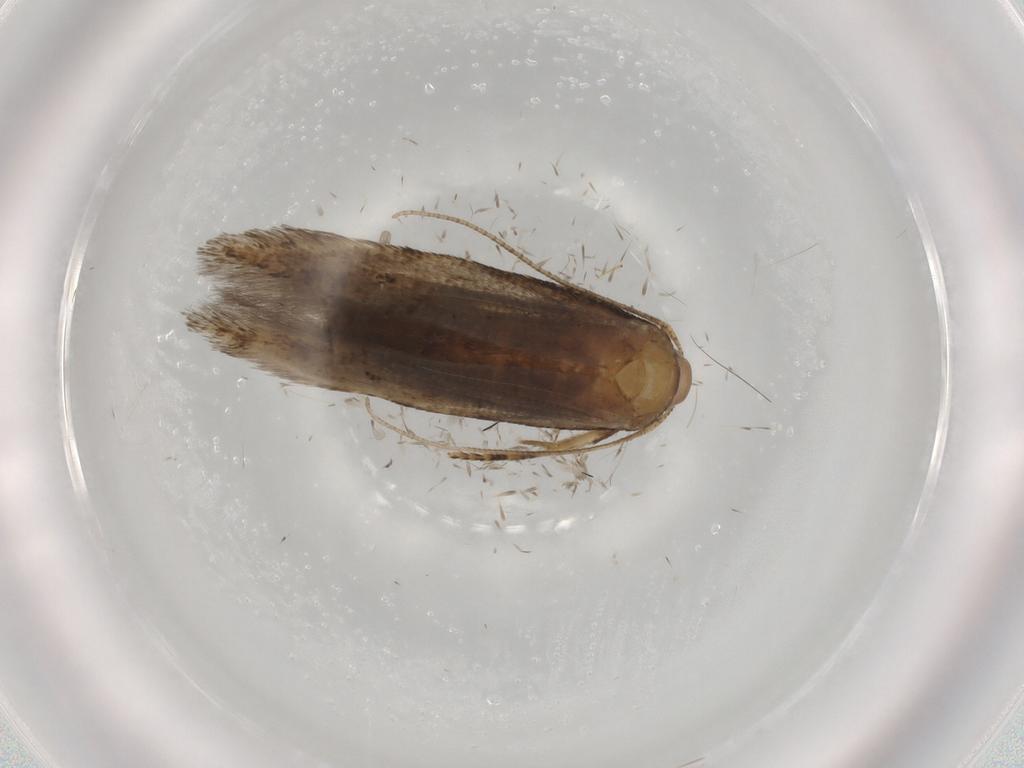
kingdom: Animalia
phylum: Arthropoda
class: Insecta
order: Lepidoptera
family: Cosmopterigidae
